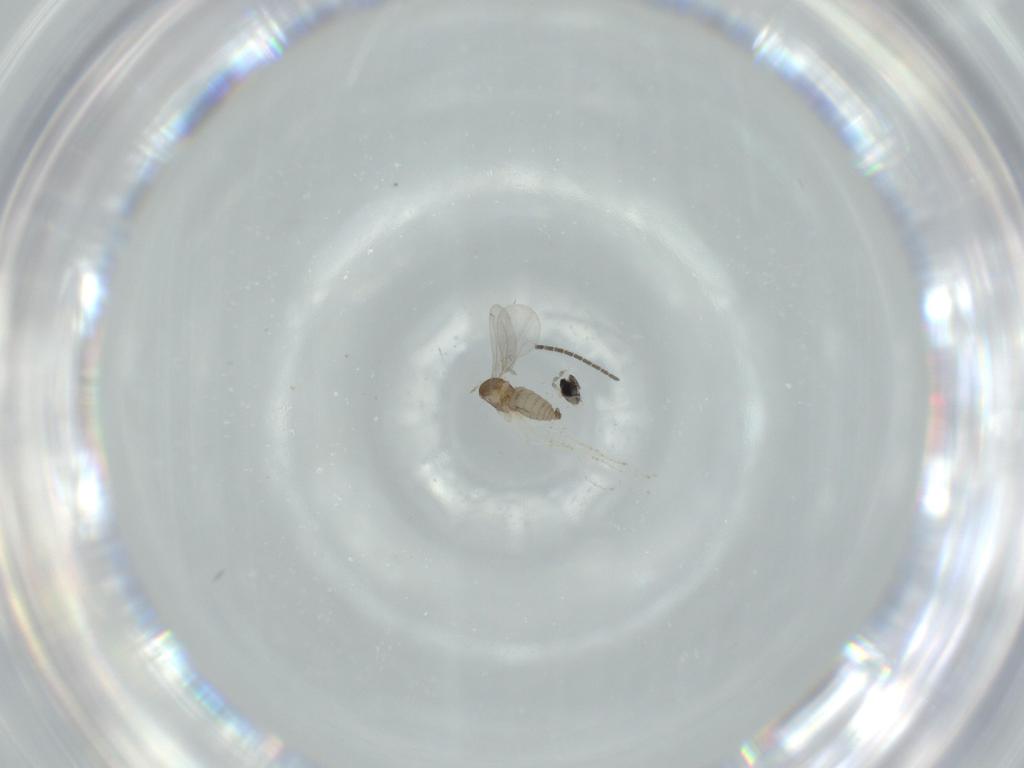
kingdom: Animalia
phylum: Arthropoda
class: Insecta
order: Diptera
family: Cecidomyiidae
